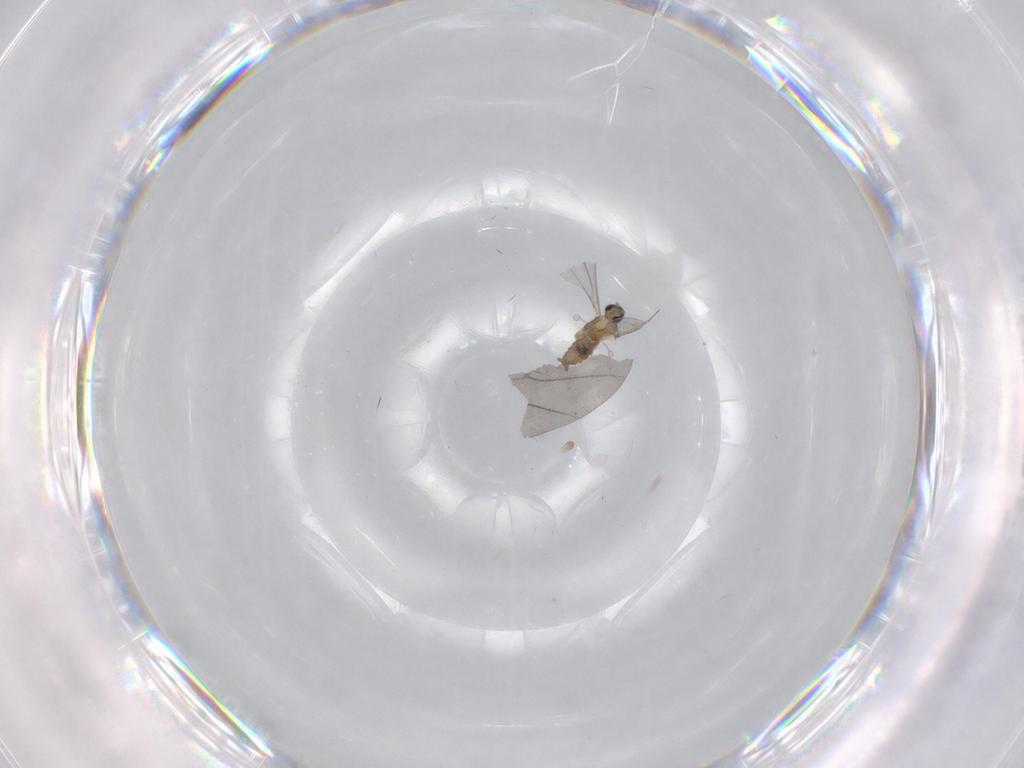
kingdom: Animalia
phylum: Arthropoda
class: Insecta
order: Diptera
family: Cecidomyiidae
